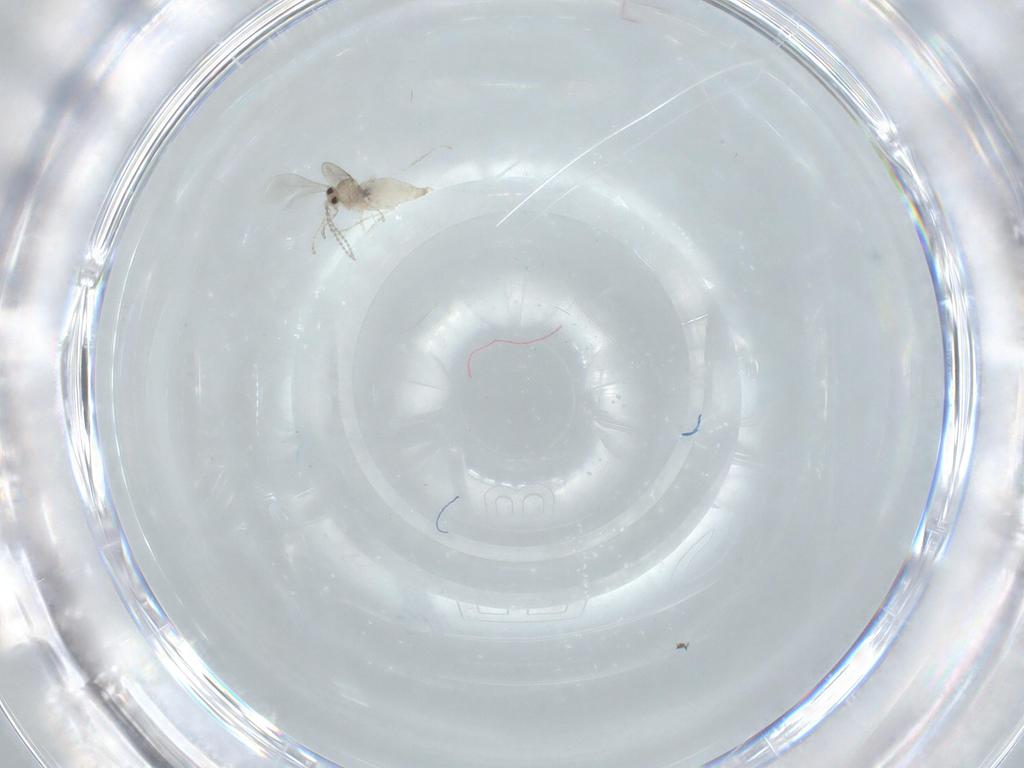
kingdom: Animalia
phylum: Arthropoda
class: Insecta
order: Diptera
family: Cecidomyiidae
